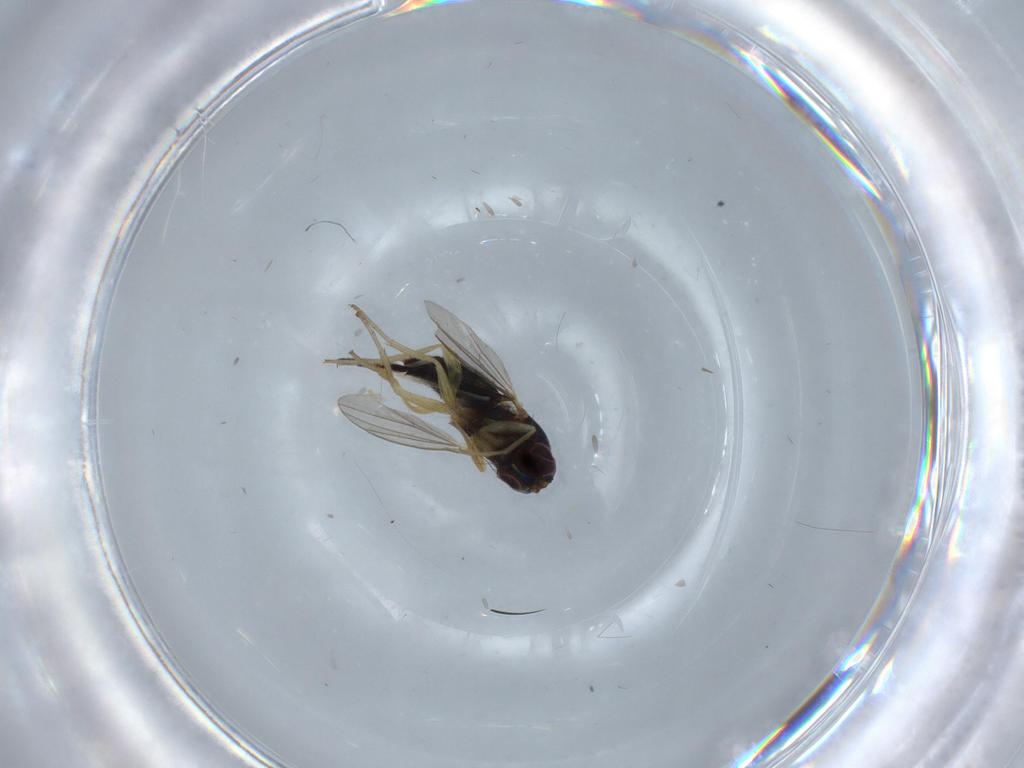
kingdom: Animalia
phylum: Arthropoda
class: Insecta
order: Diptera
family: Dolichopodidae
